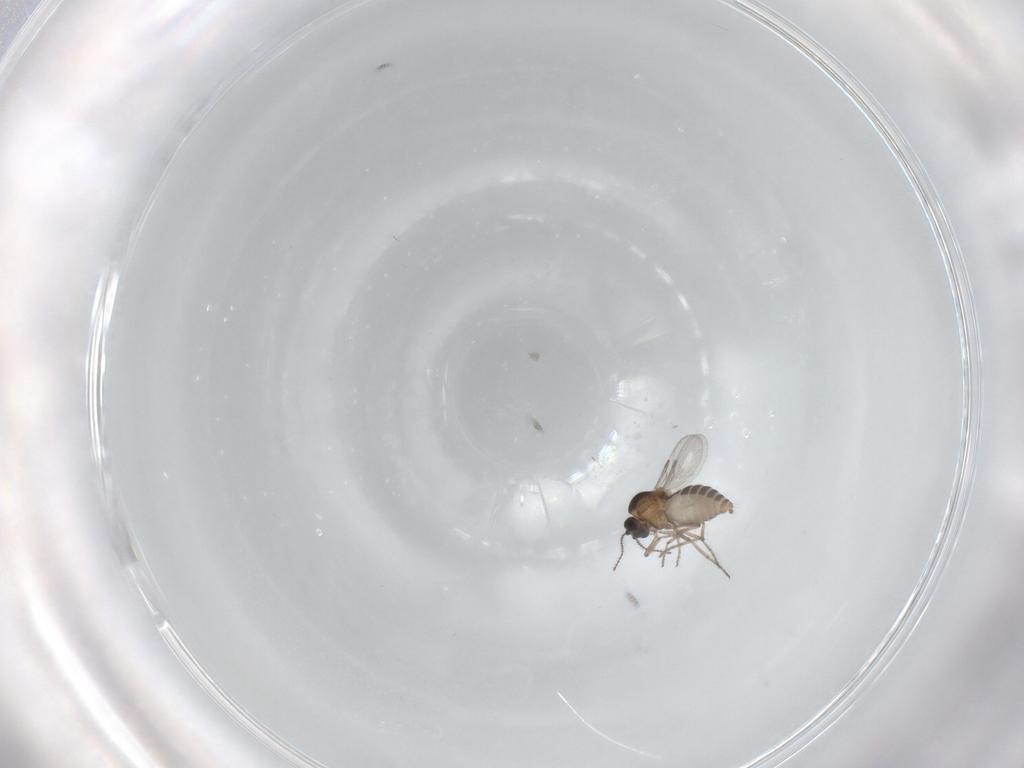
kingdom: Animalia
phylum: Arthropoda
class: Insecta
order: Diptera
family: Ceratopogonidae
